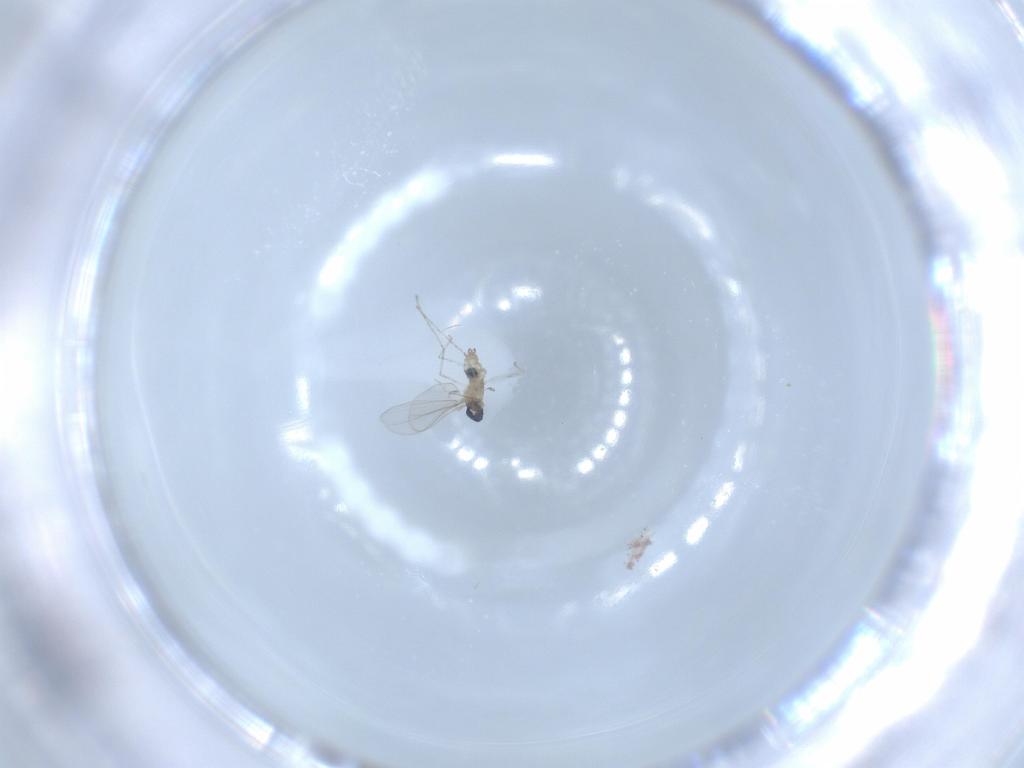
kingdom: Animalia
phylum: Arthropoda
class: Insecta
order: Diptera
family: Cecidomyiidae
